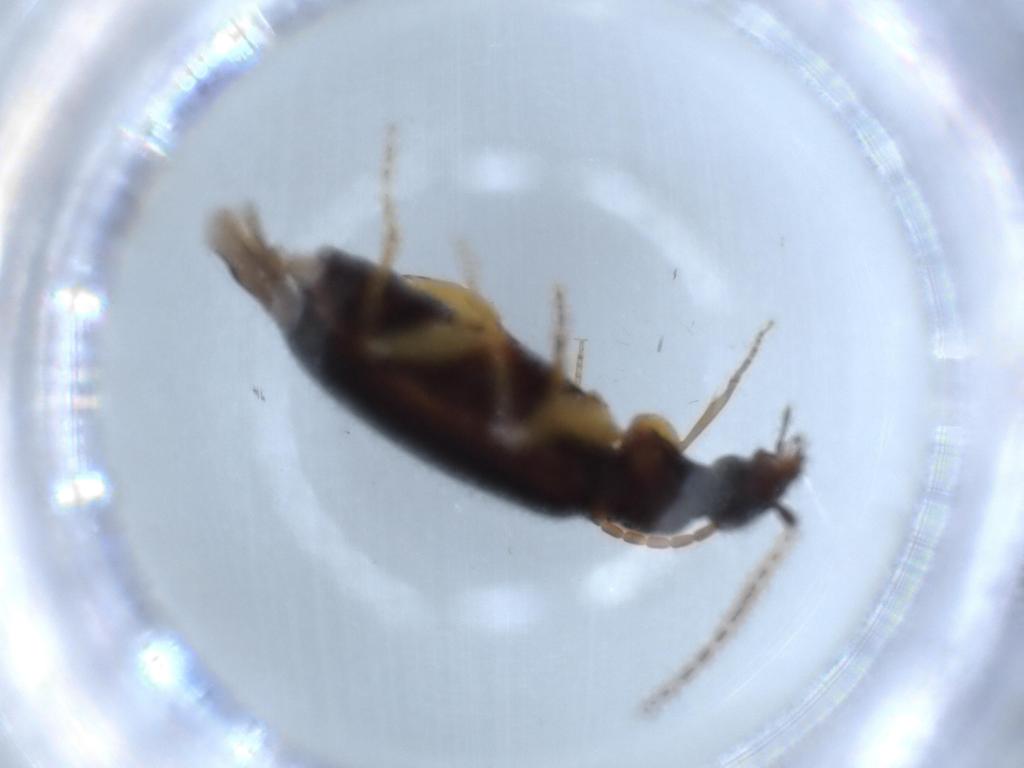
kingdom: Animalia
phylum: Arthropoda
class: Insecta
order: Coleoptera
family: Carabidae
